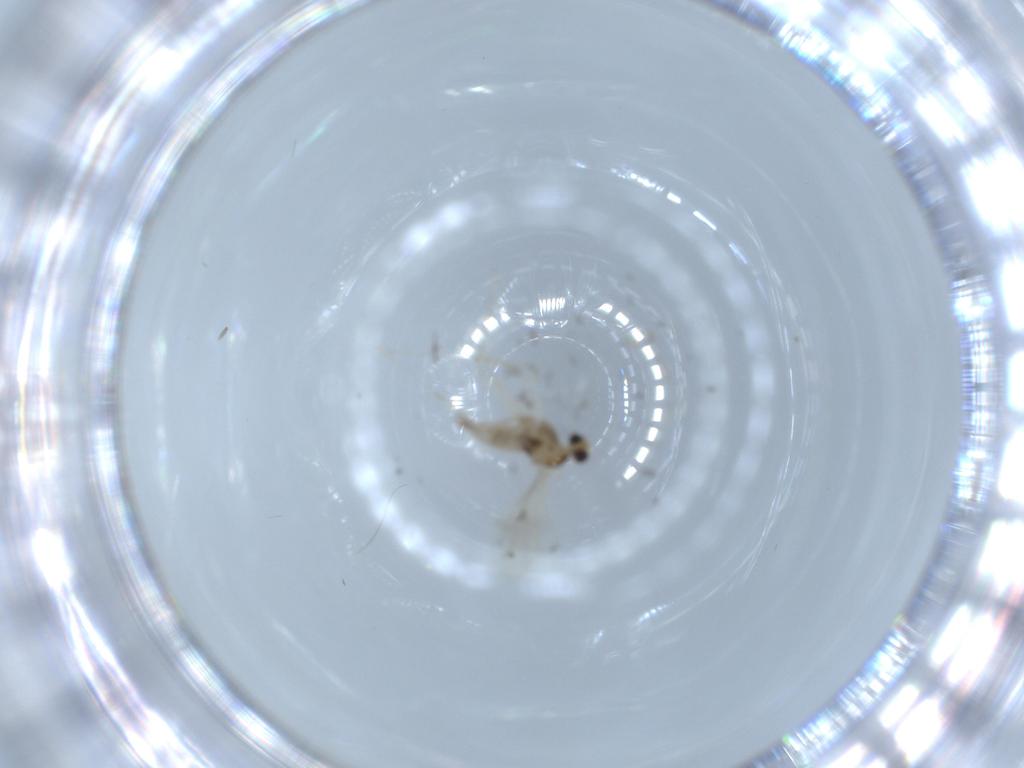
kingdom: Animalia
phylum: Arthropoda
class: Insecta
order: Diptera
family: Cecidomyiidae
